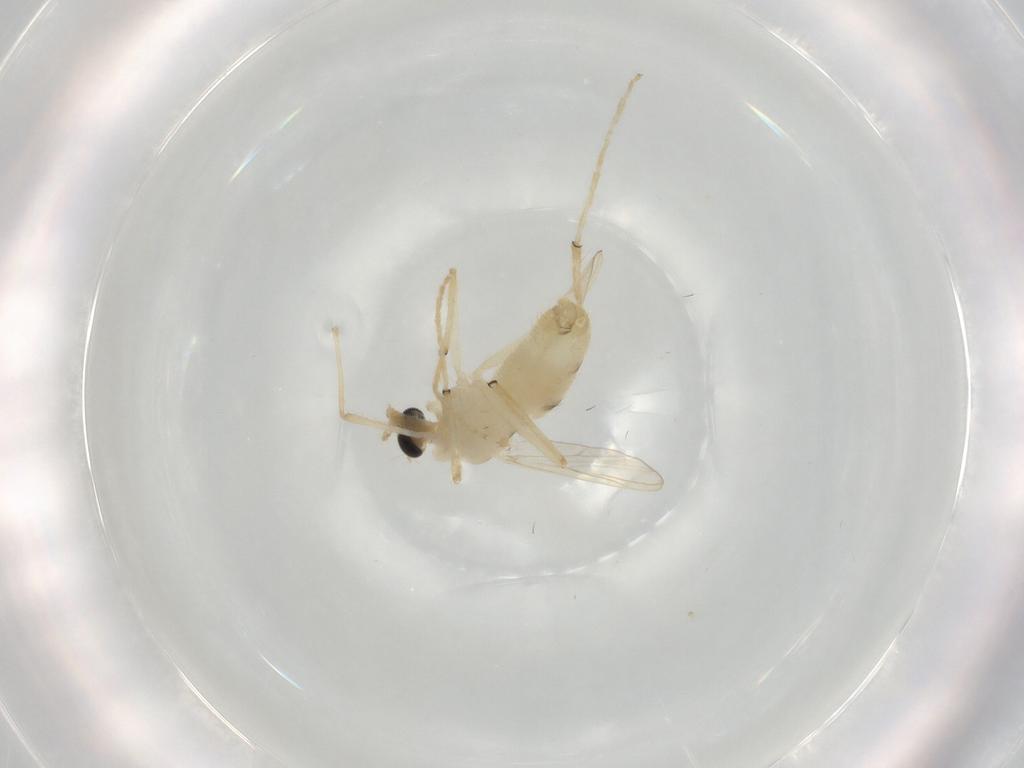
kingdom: Animalia
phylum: Arthropoda
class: Insecta
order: Diptera
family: Chironomidae
